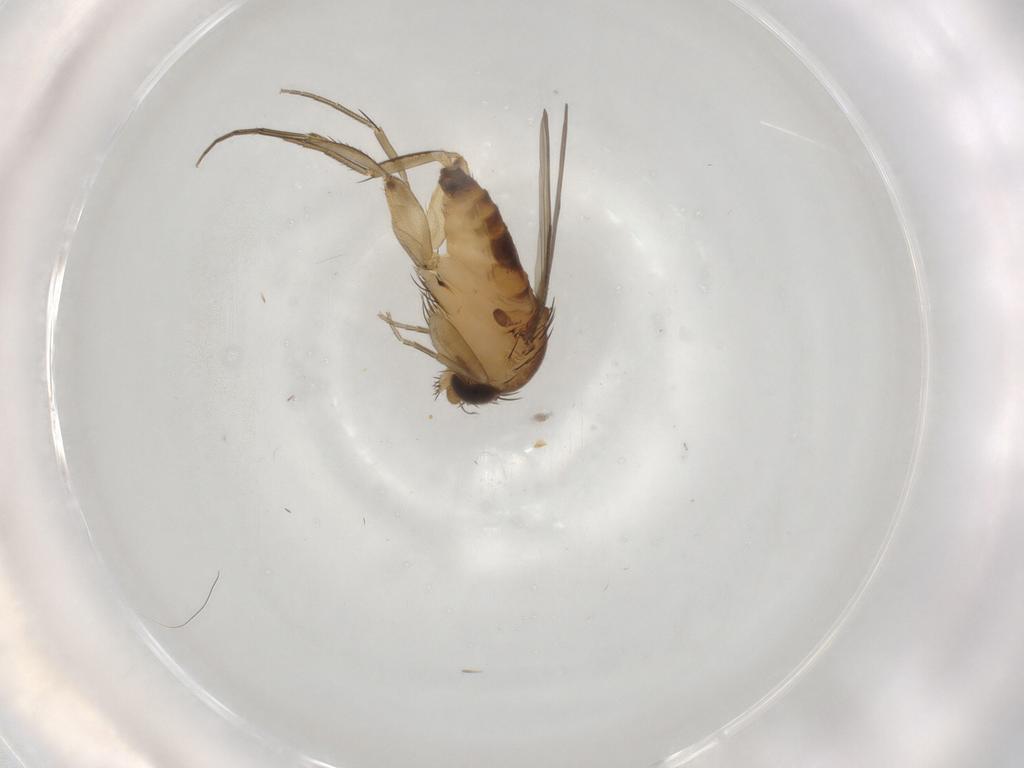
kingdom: Animalia
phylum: Arthropoda
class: Insecta
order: Diptera
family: Phoridae
